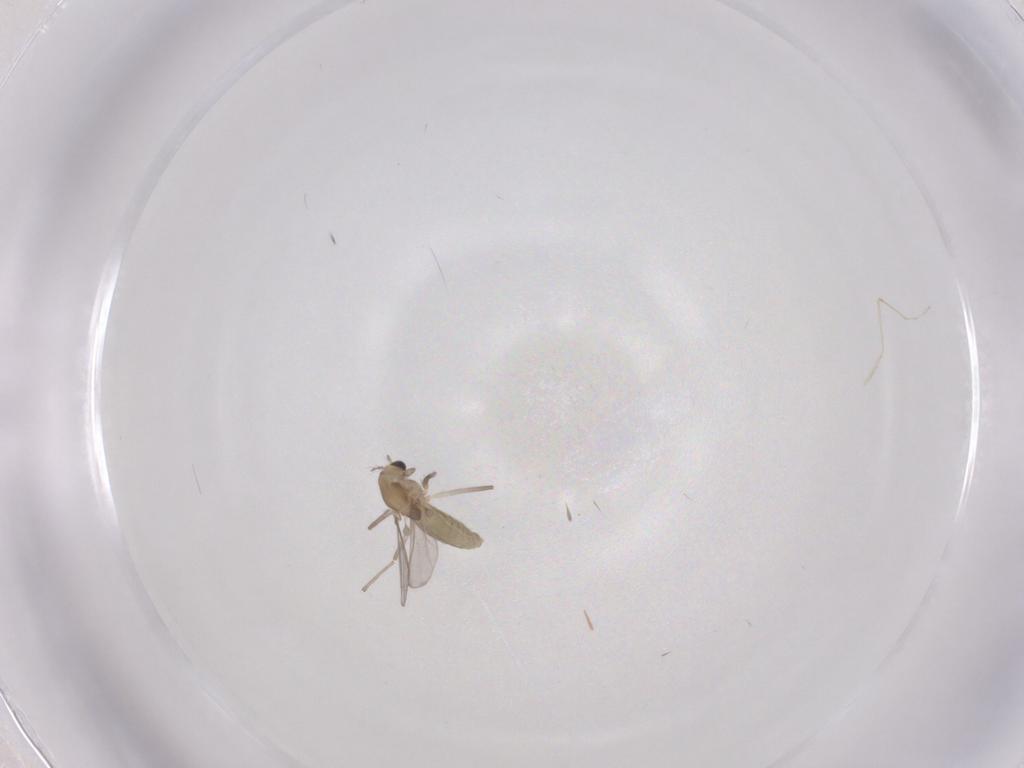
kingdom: Animalia
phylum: Arthropoda
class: Insecta
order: Diptera
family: Chironomidae
